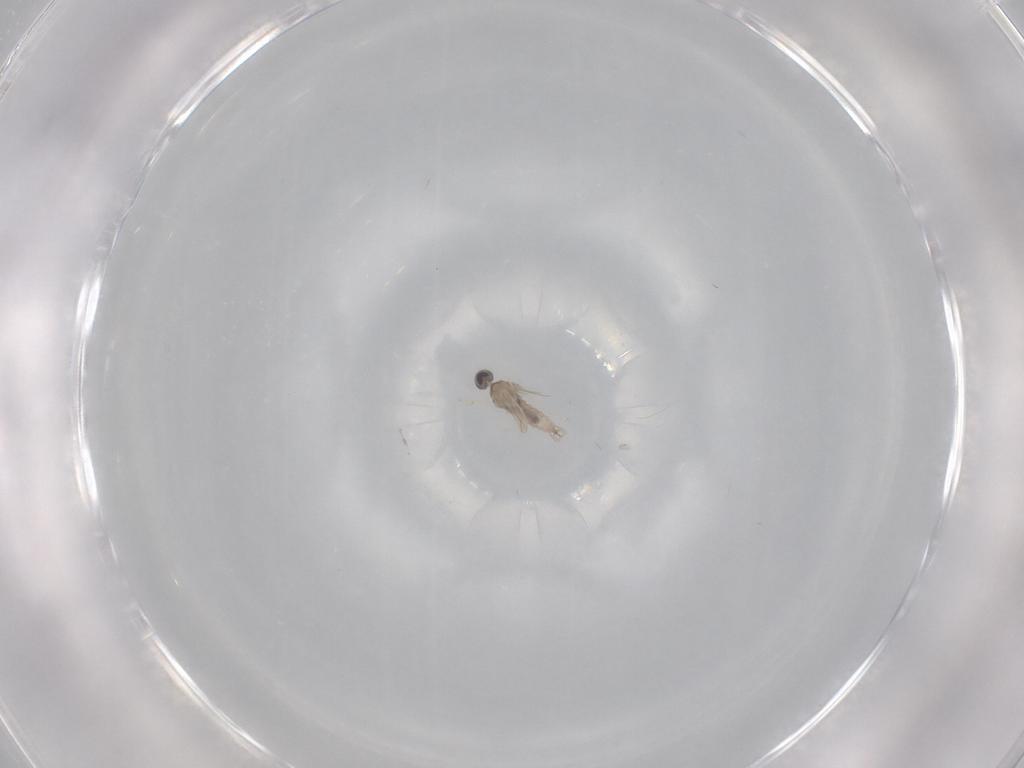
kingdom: Animalia
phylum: Arthropoda
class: Insecta
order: Diptera
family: Cecidomyiidae
